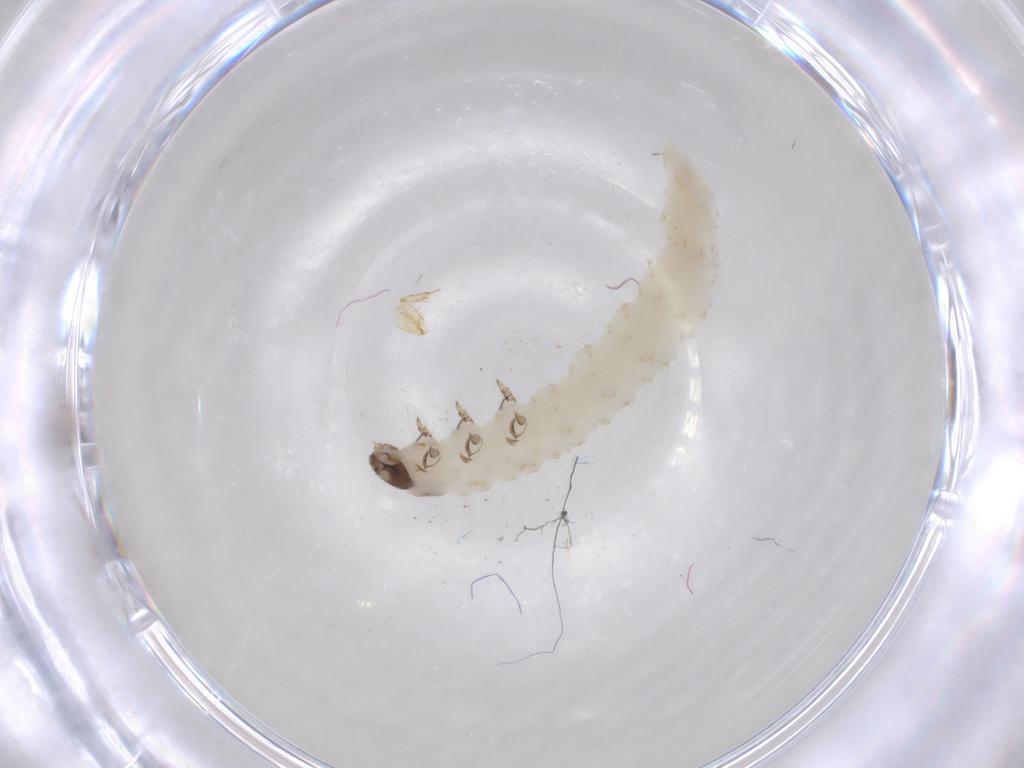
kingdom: Animalia
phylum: Arthropoda
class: Insecta
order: Coleoptera
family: Chrysomelidae
